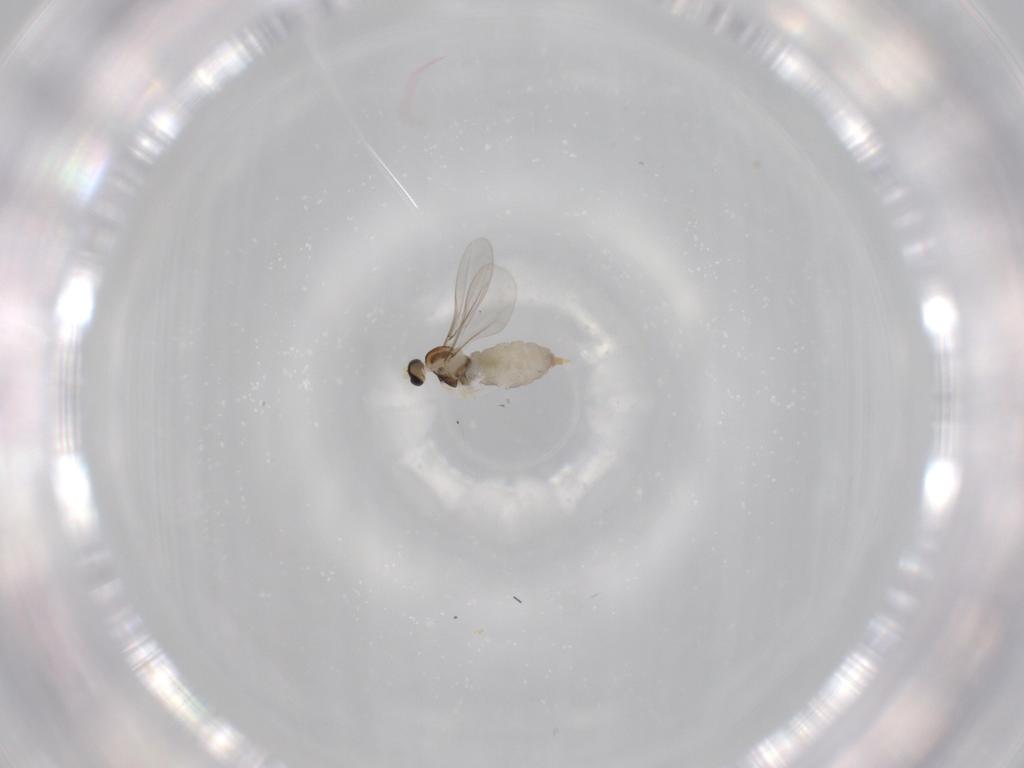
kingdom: Animalia
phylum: Arthropoda
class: Insecta
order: Diptera
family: Cecidomyiidae
